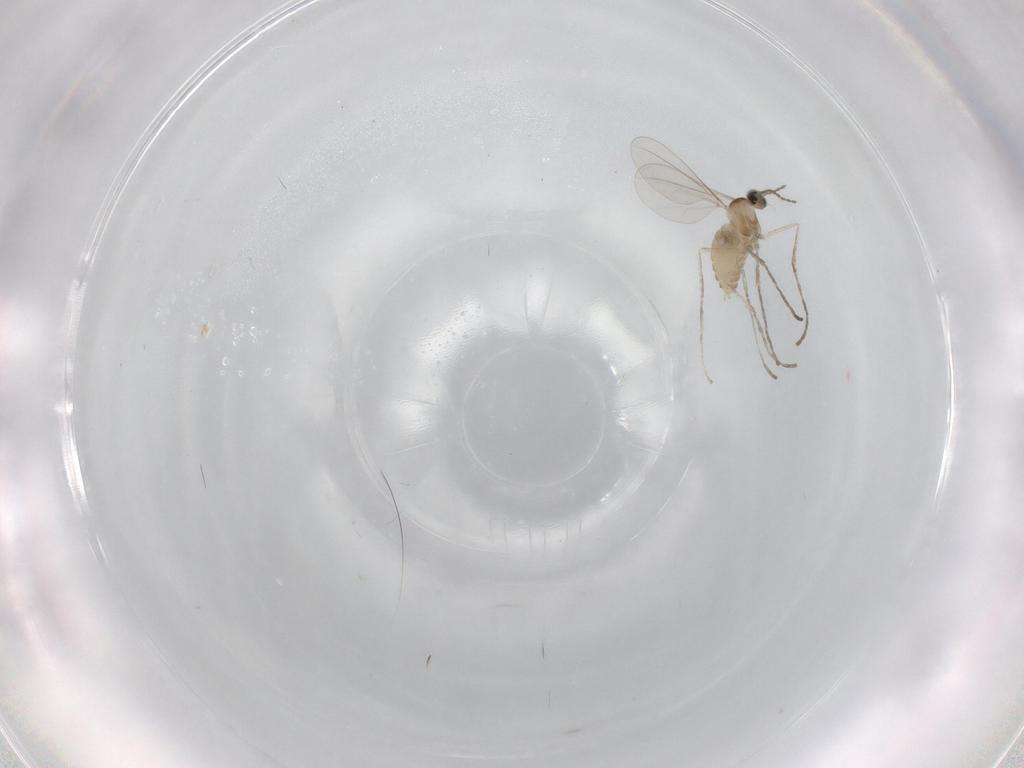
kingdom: Animalia
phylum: Arthropoda
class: Insecta
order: Diptera
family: Cecidomyiidae
